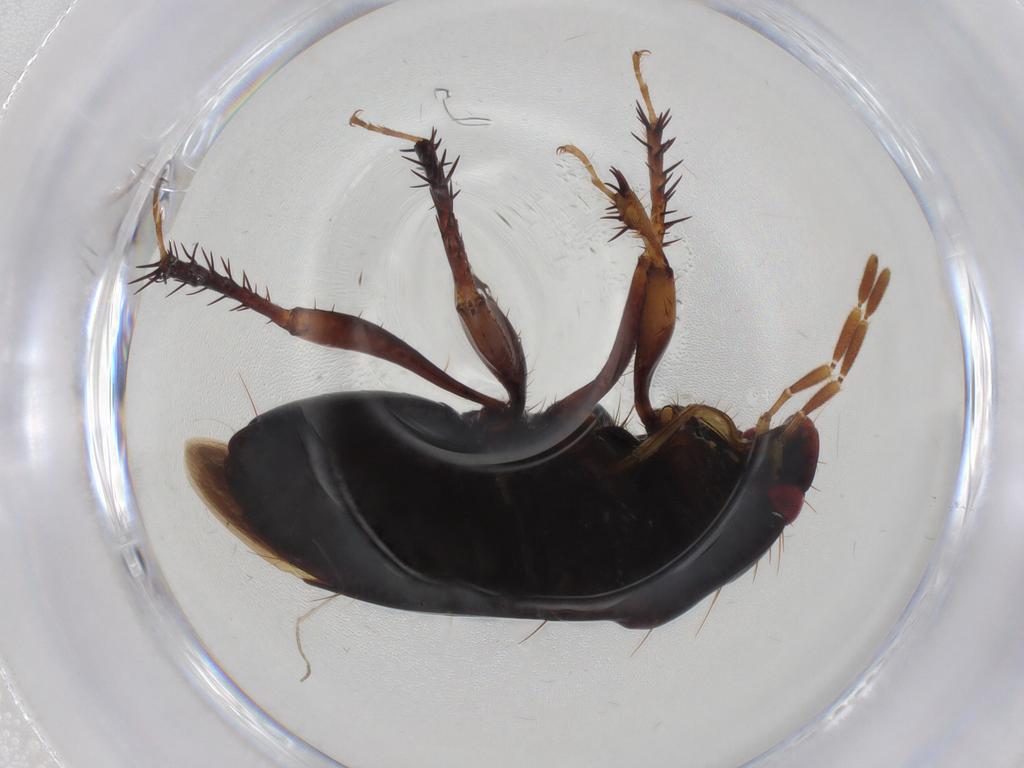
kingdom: Animalia
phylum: Arthropoda
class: Insecta
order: Hemiptera
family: Cydnidae
